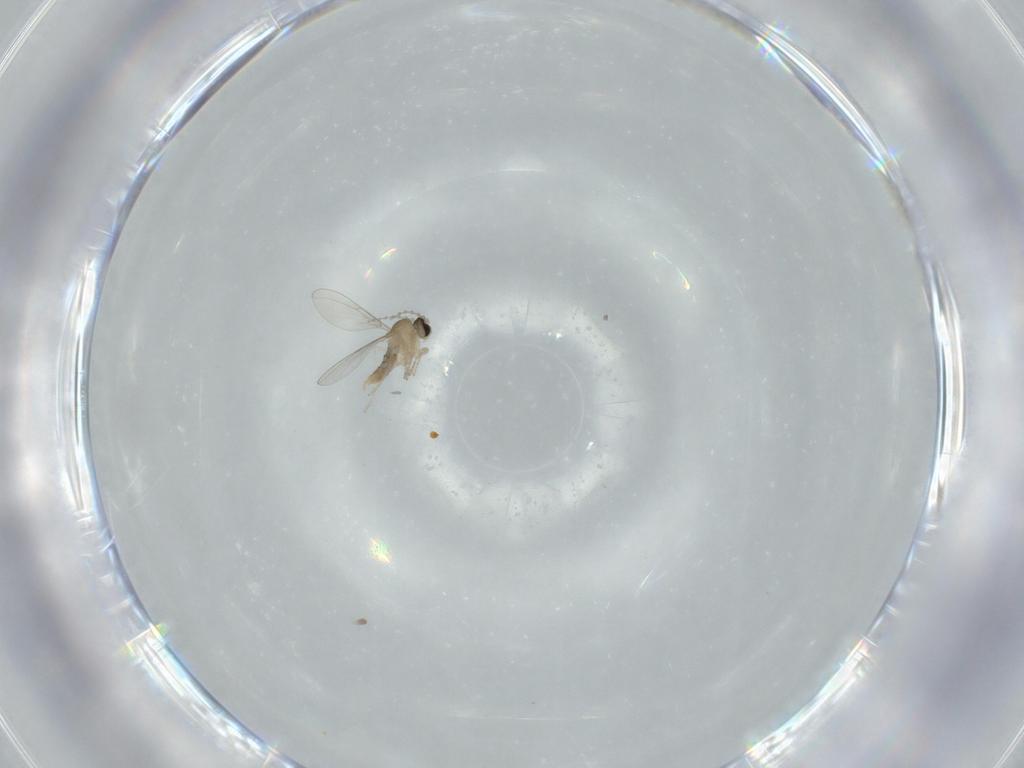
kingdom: Animalia
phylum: Arthropoda
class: Insecta
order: Diptera
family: Cecidomyiidae
